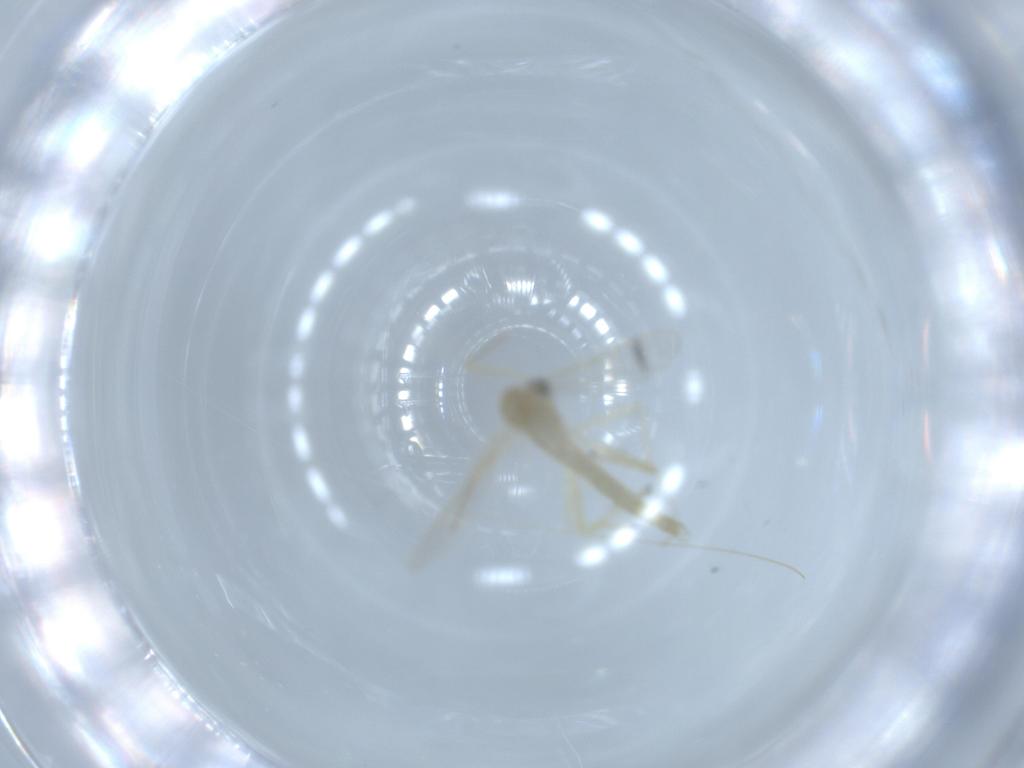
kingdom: Animalia
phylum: Arthropoda
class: Insecta
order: Diptera
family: Chironomidae
